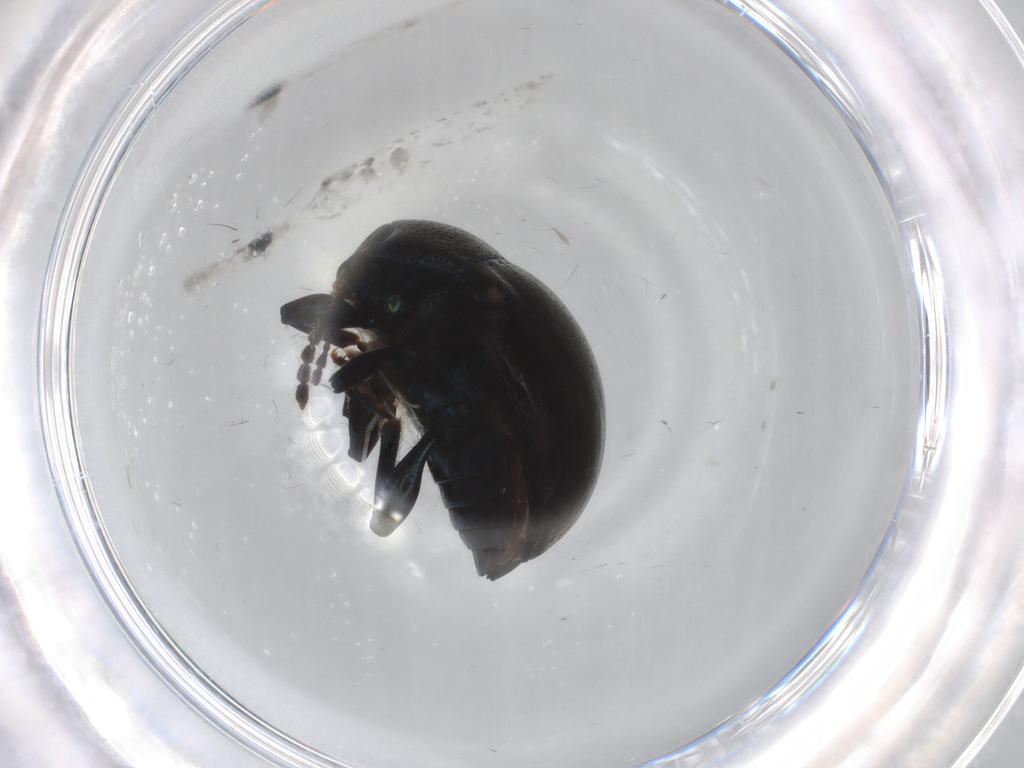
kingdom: Animalia
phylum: Arthropoda
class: Insecta
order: Coleoptera
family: Chrysomelidae
